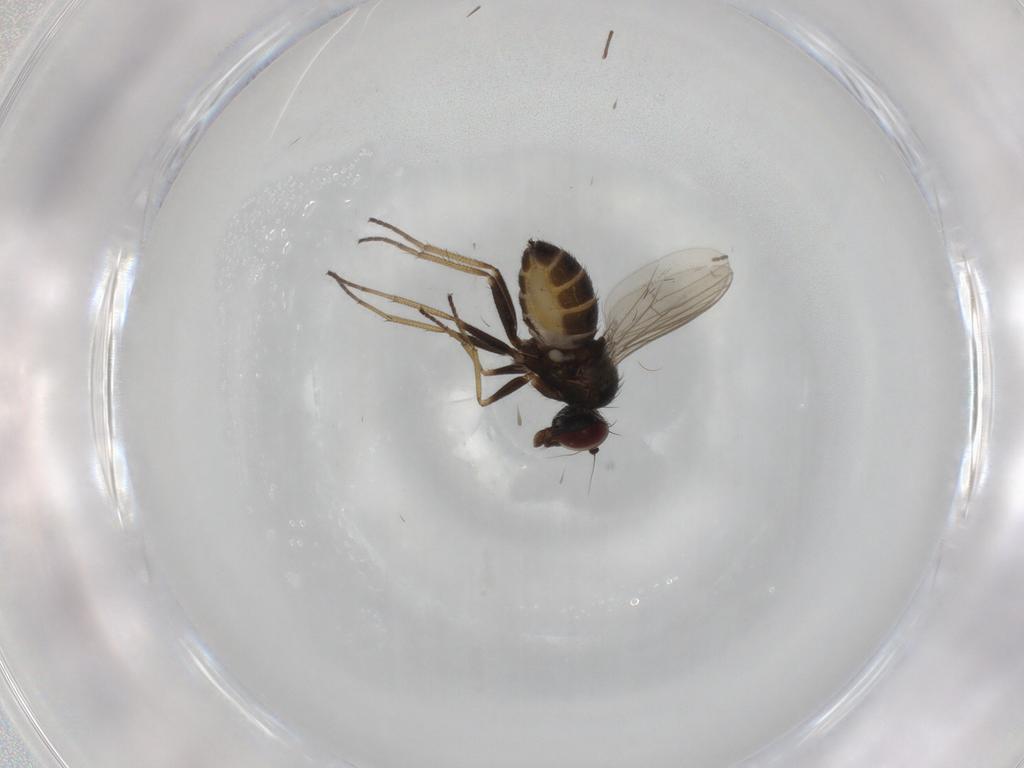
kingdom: Animalia
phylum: Arthropoda
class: Insecta
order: Diptera
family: Dolichopodidae
